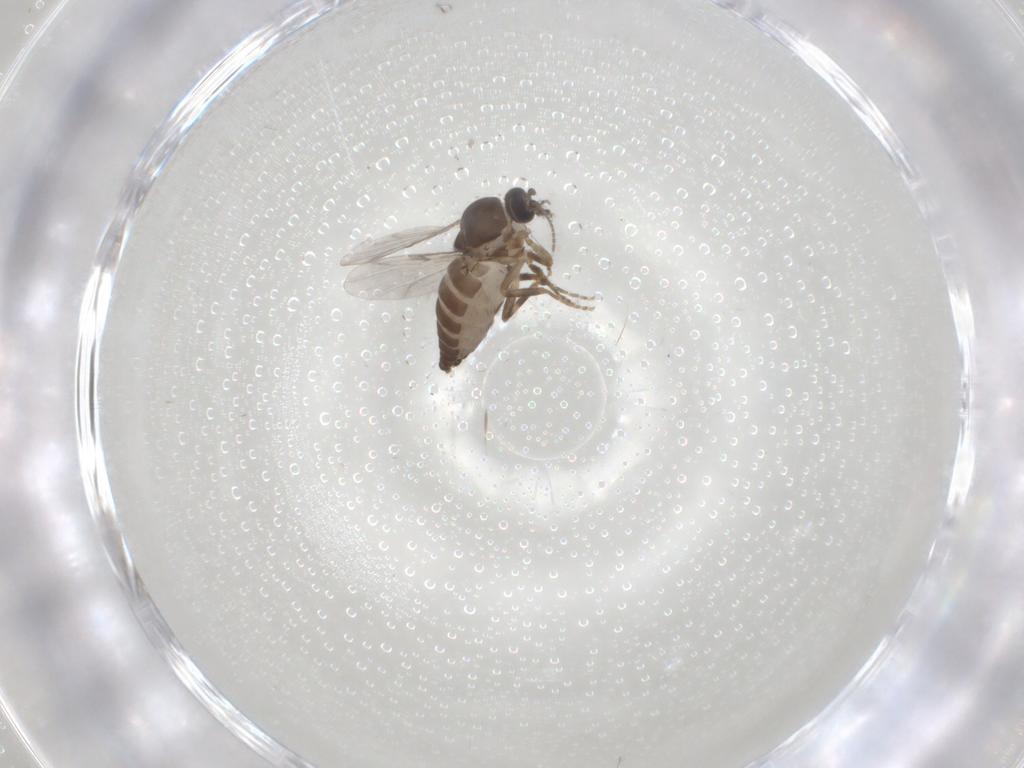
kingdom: Animalia
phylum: Arthropoda
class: Insecta
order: Diptera
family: Ceratopogonidae
